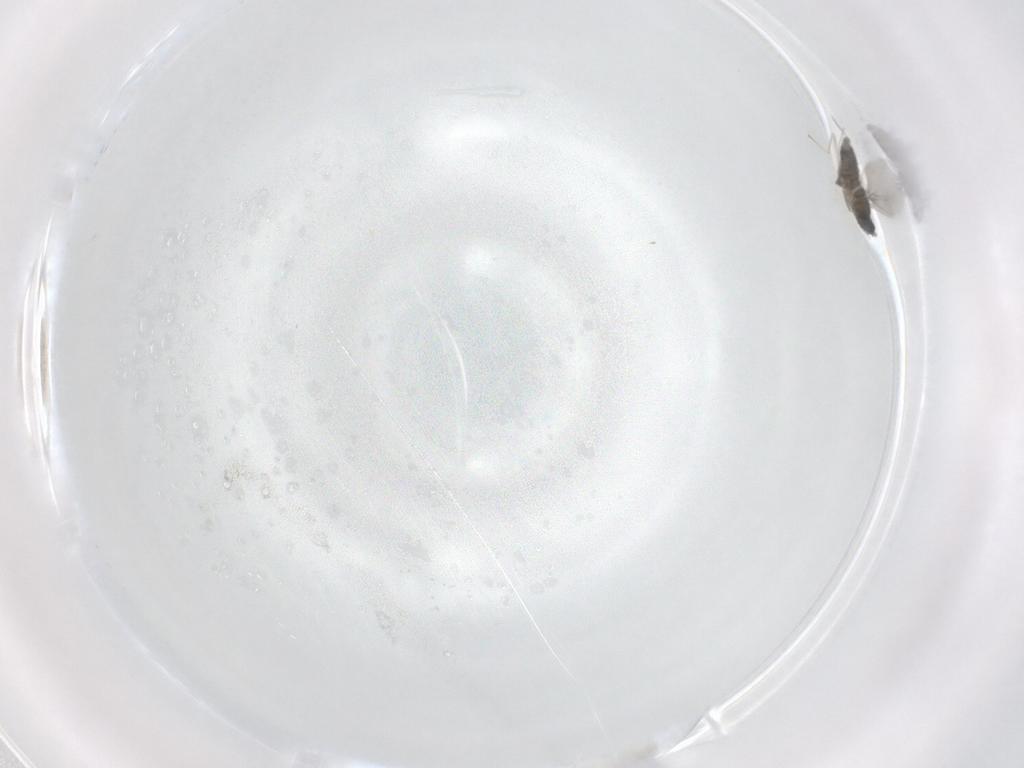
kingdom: Animalia
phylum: Arthropoda
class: Insecta
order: Diptera
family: Cecidomyiidae
